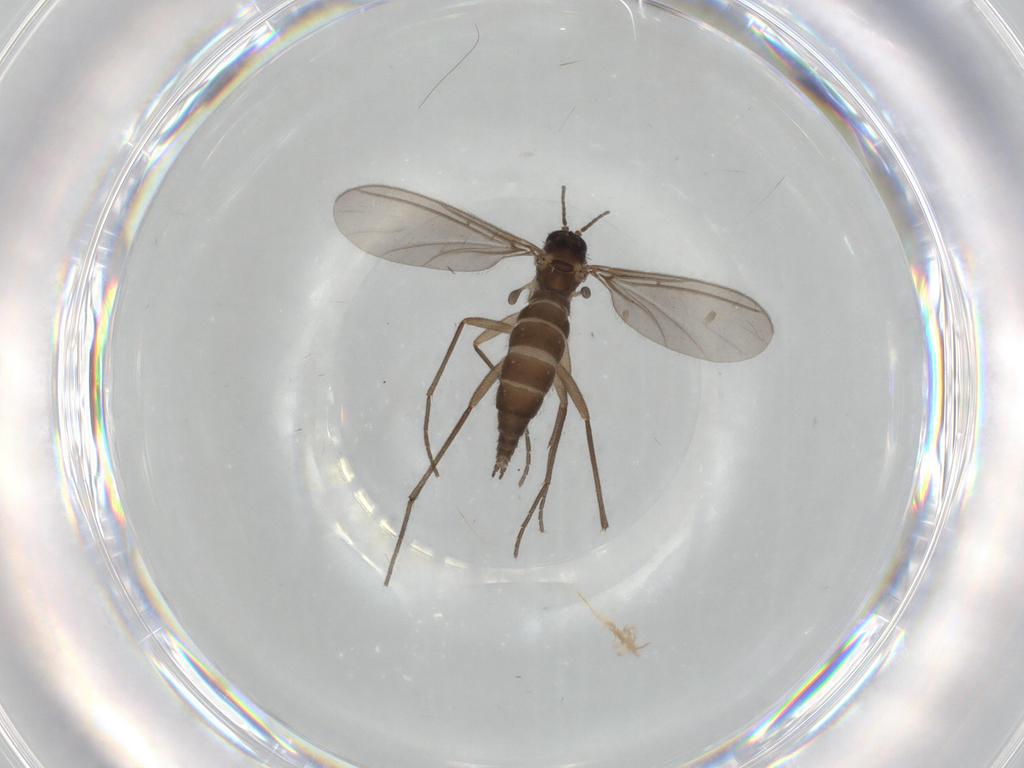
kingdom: Animalia
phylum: Arthropoda
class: Insecta
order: Diptera
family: Sciaridae
